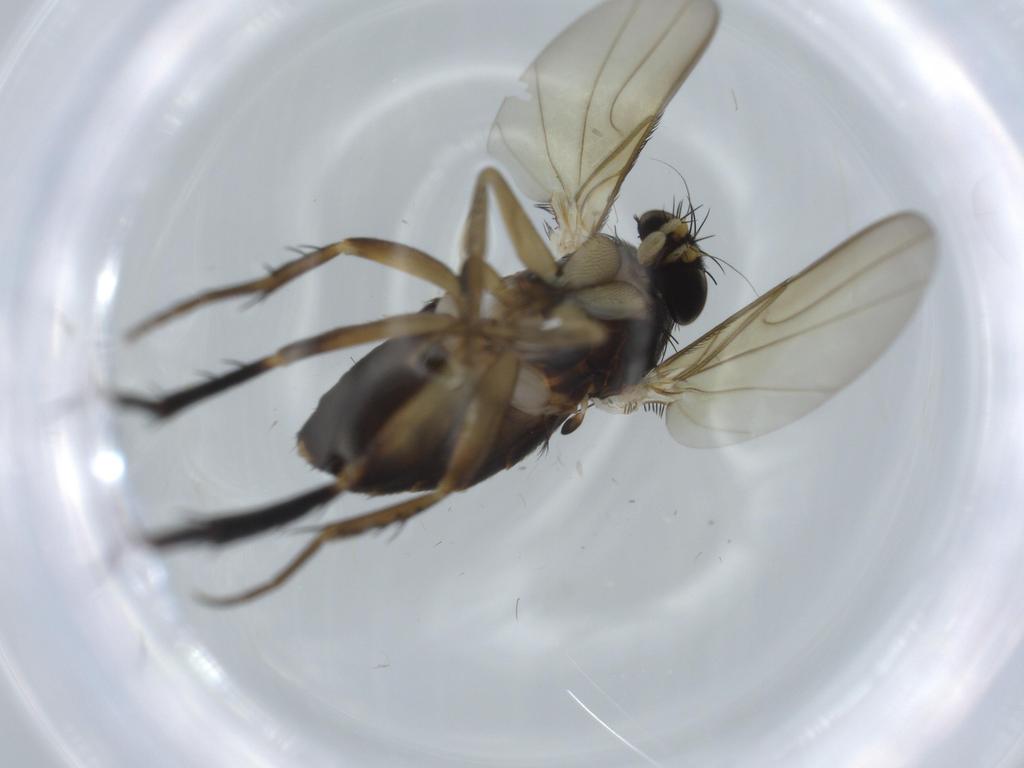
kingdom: Animalia
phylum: Arthropoda
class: Insecta
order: Diptera
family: Phoridae
